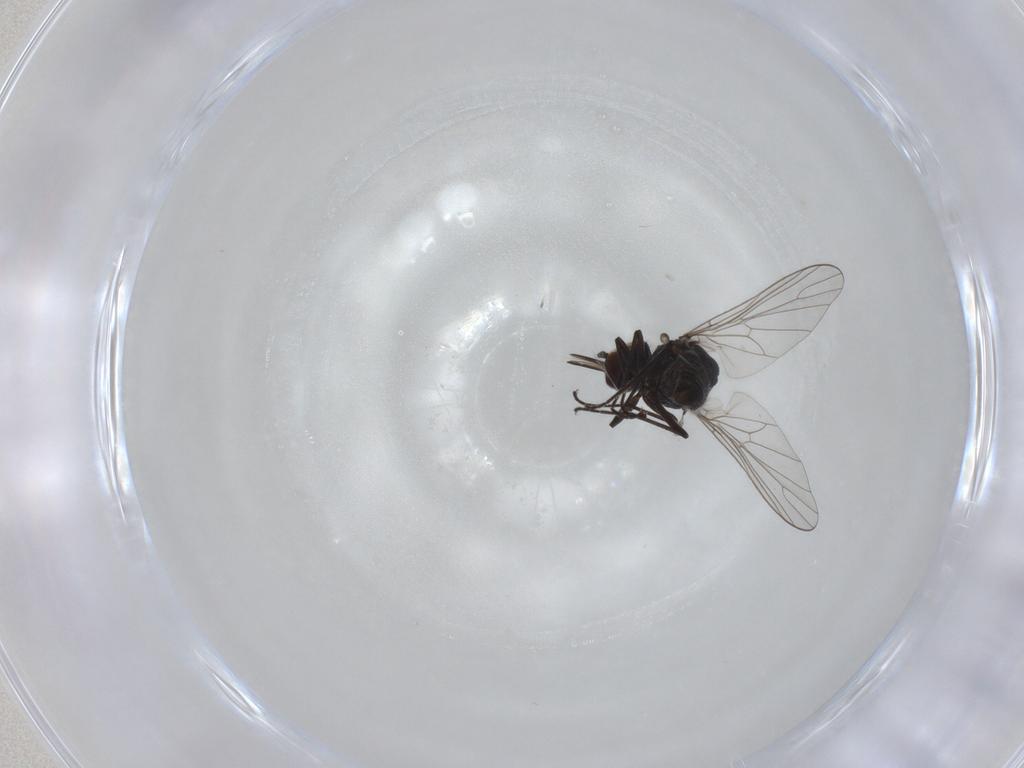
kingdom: Animalia
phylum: Arthropoda
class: Insecta
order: Diptera
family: Bombyliidae
